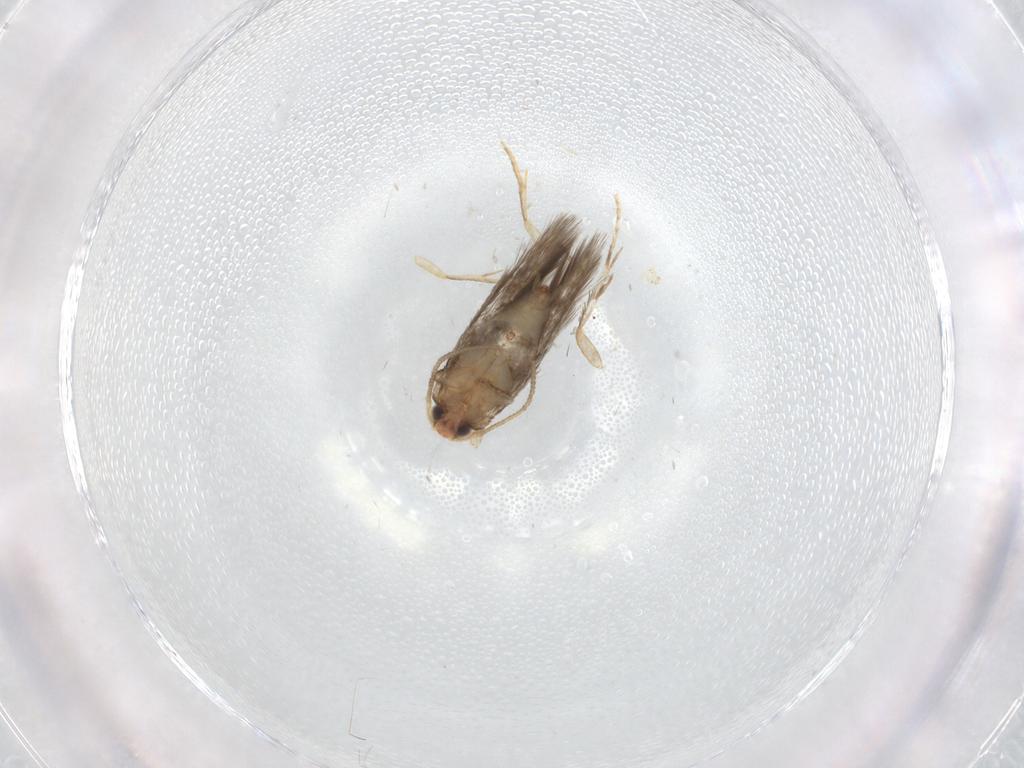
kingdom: Animalia
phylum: Arthropoda
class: Insecta
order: Lepidoptera
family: Nepticulidae
